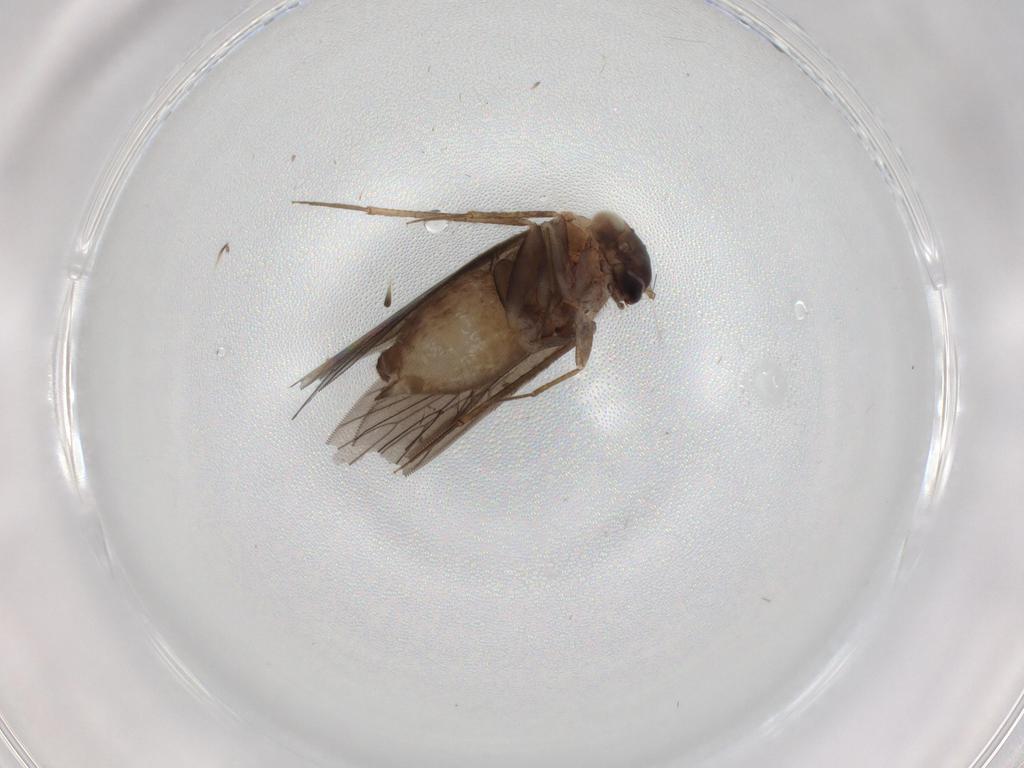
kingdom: Animalia
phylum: Arthropoda
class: Insecta
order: Psocodea
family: Lepidopsocidae
